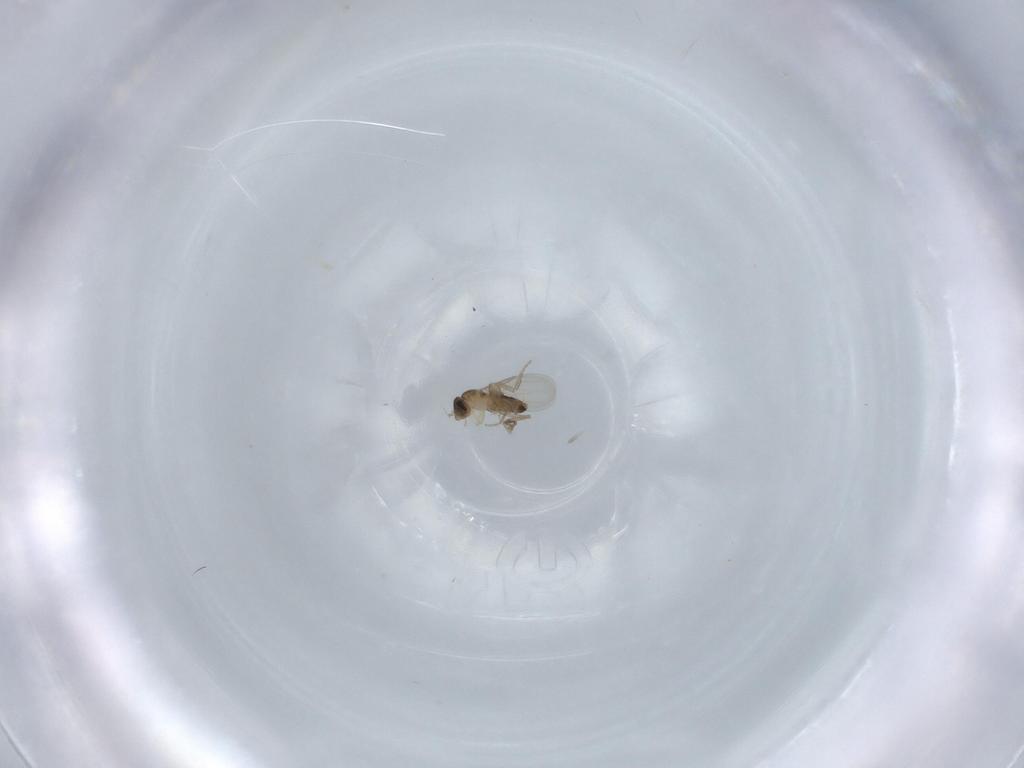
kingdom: Animalia
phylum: Arthropoda
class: Insecta
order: Diptera
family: Phoridae
